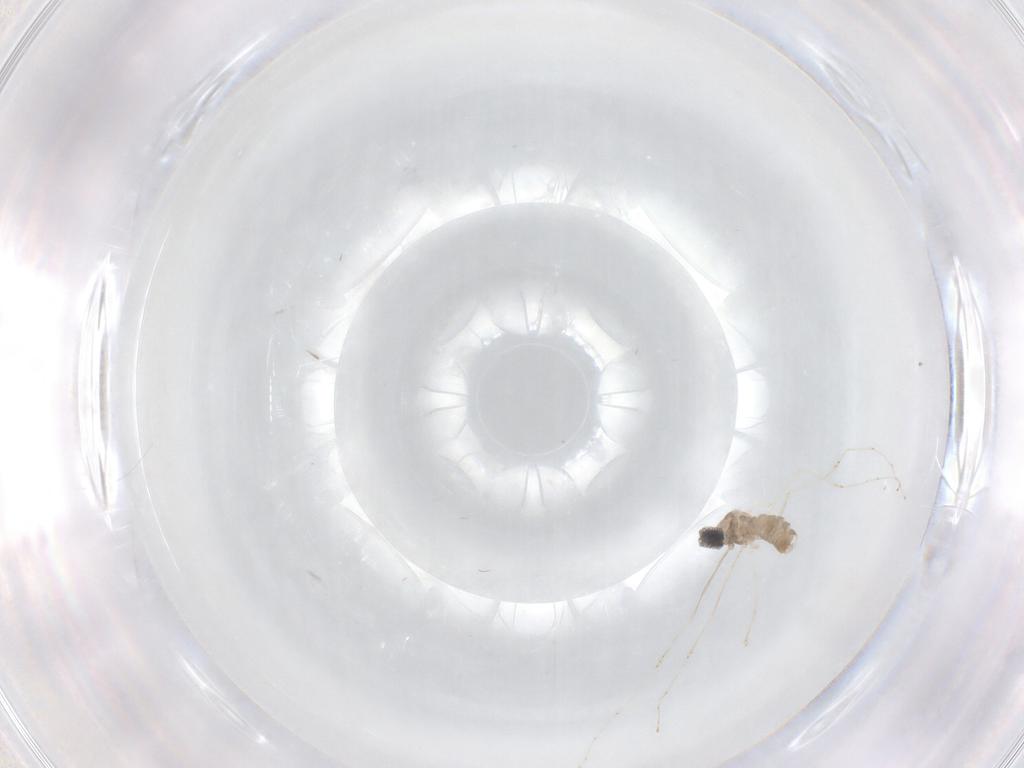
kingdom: Animalia
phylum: Arthropoda
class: Insecta
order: Diptera
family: Cecidomyiidae
